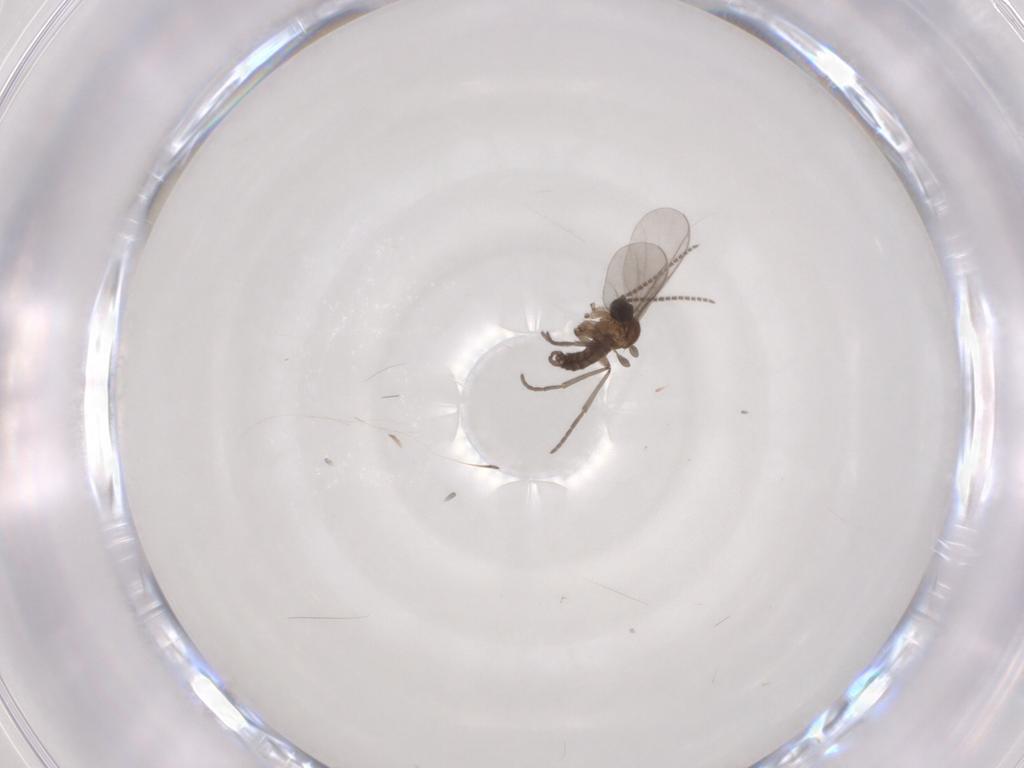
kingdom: Animalia
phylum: Arthropoda
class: Insecta
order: Diptera
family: Sciaridae
